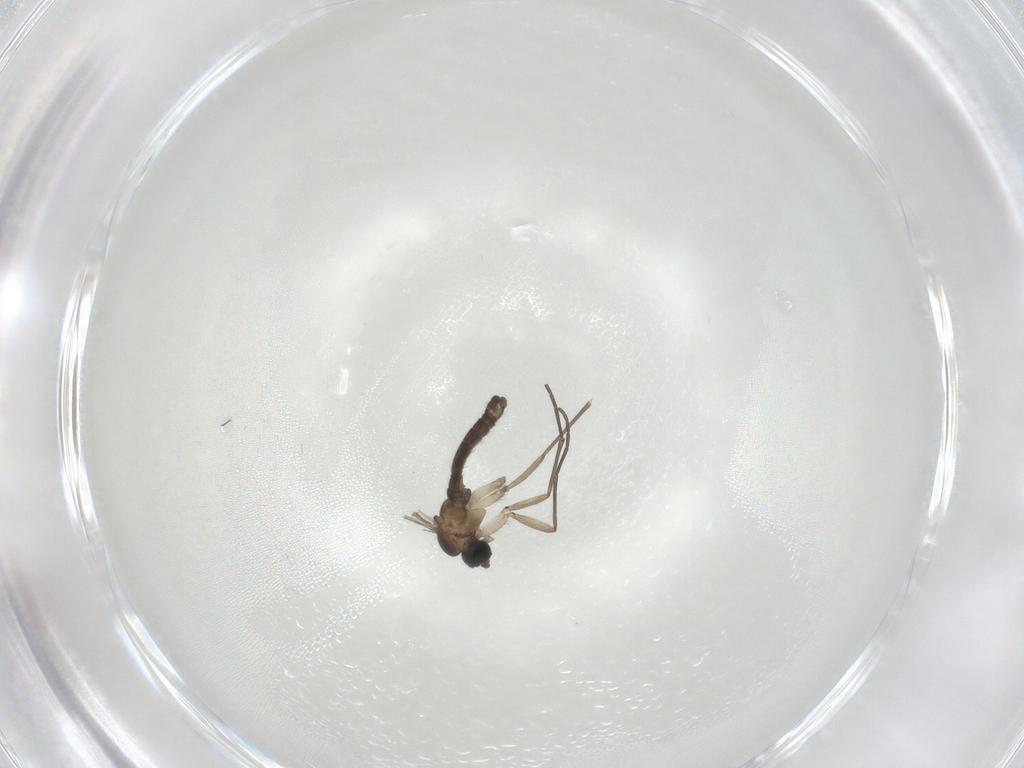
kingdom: Animalia
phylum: Arthropoda
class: Insecta
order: Diptera
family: Sciaridae
